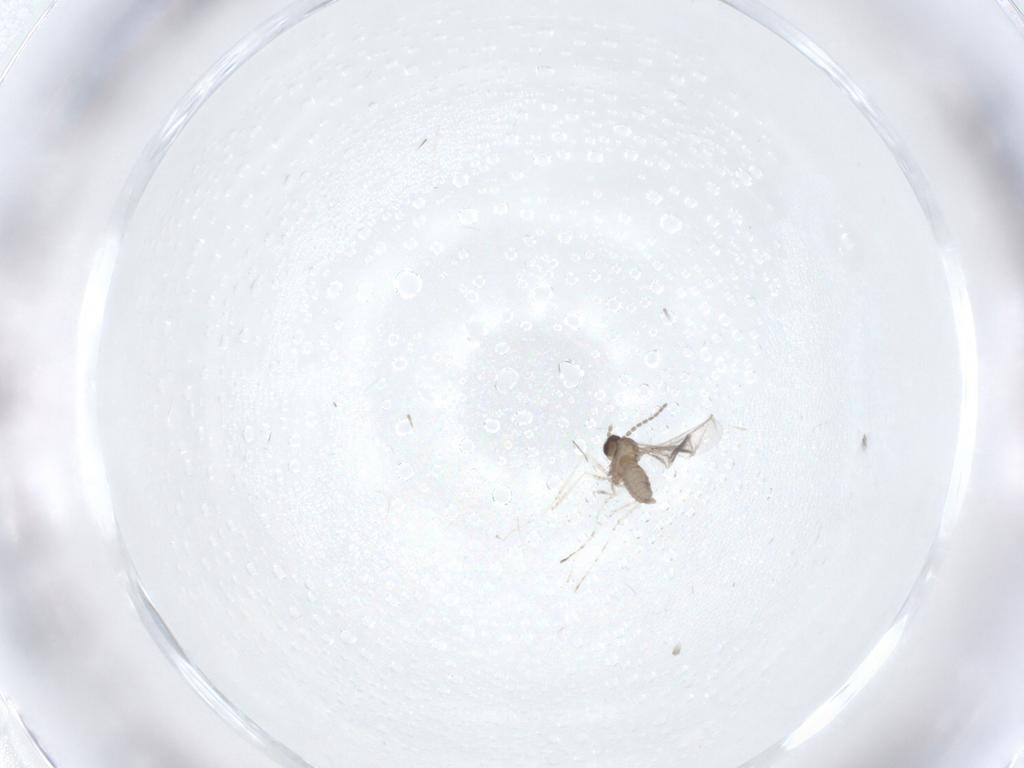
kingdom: Animalia
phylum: Arthropoda
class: Insecta
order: Diptera
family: Cecidomyiidae
